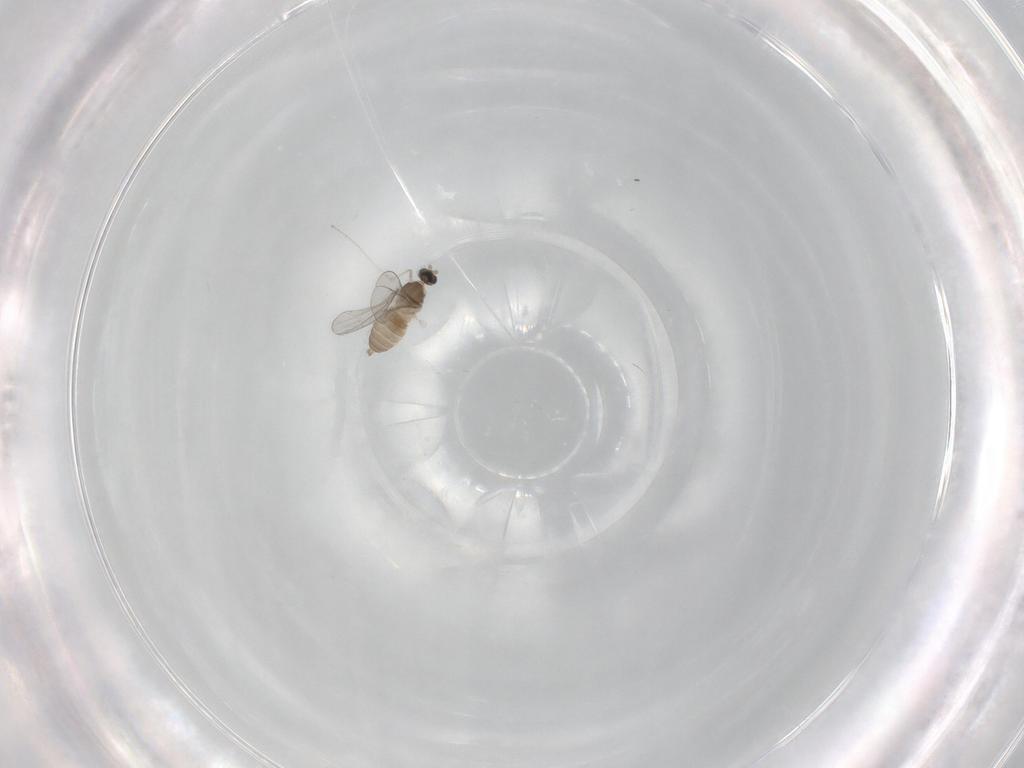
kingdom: Animalia
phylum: Arthropoda
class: Insecta
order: Diptera
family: Cecidomyiidae
